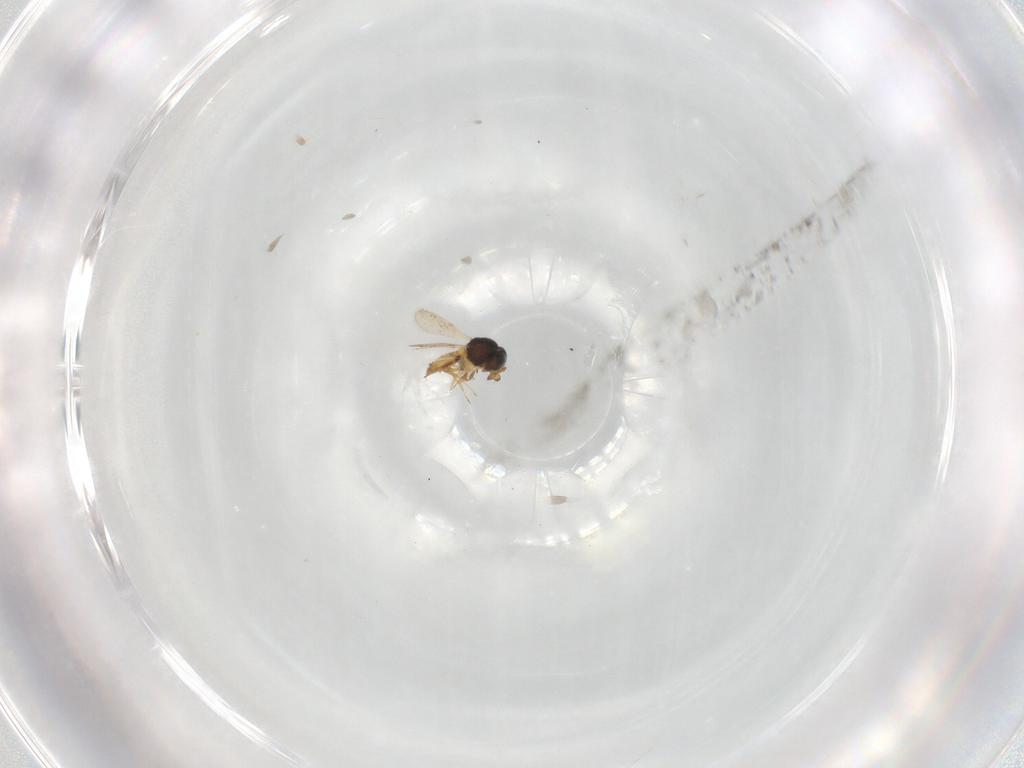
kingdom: Animalia
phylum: Arthropoda
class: Insecta
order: Hymenoptera
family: Scelionidae
